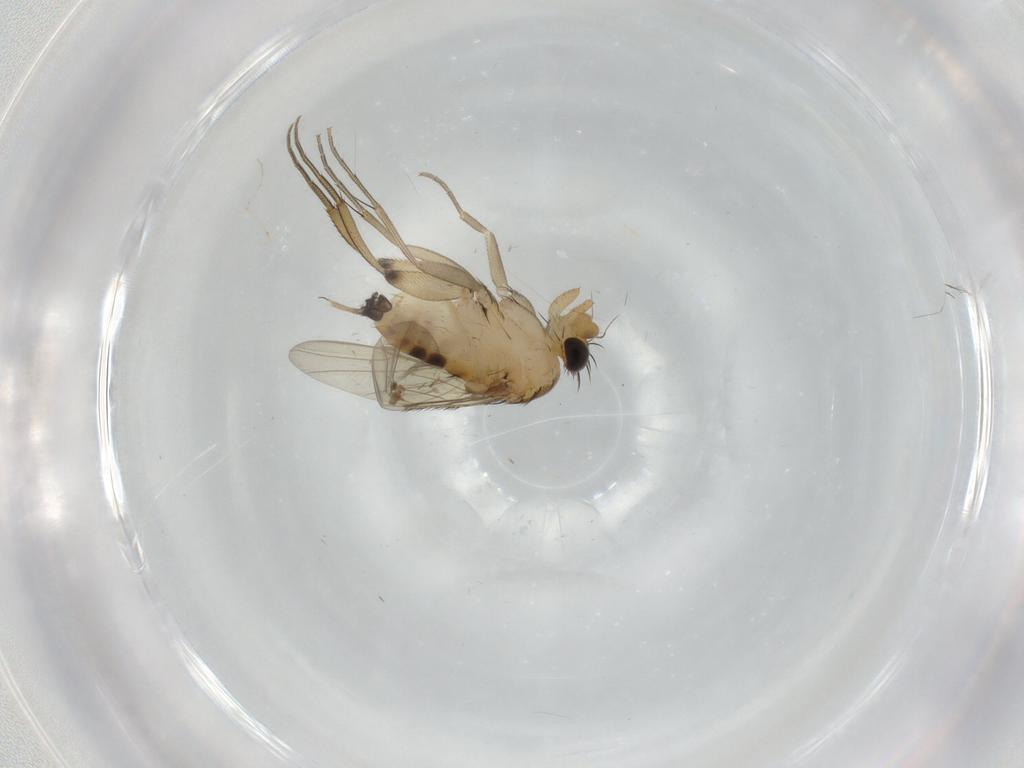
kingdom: Animalia
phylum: Arthropoda
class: Insecta
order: Diptera
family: Phoridae
